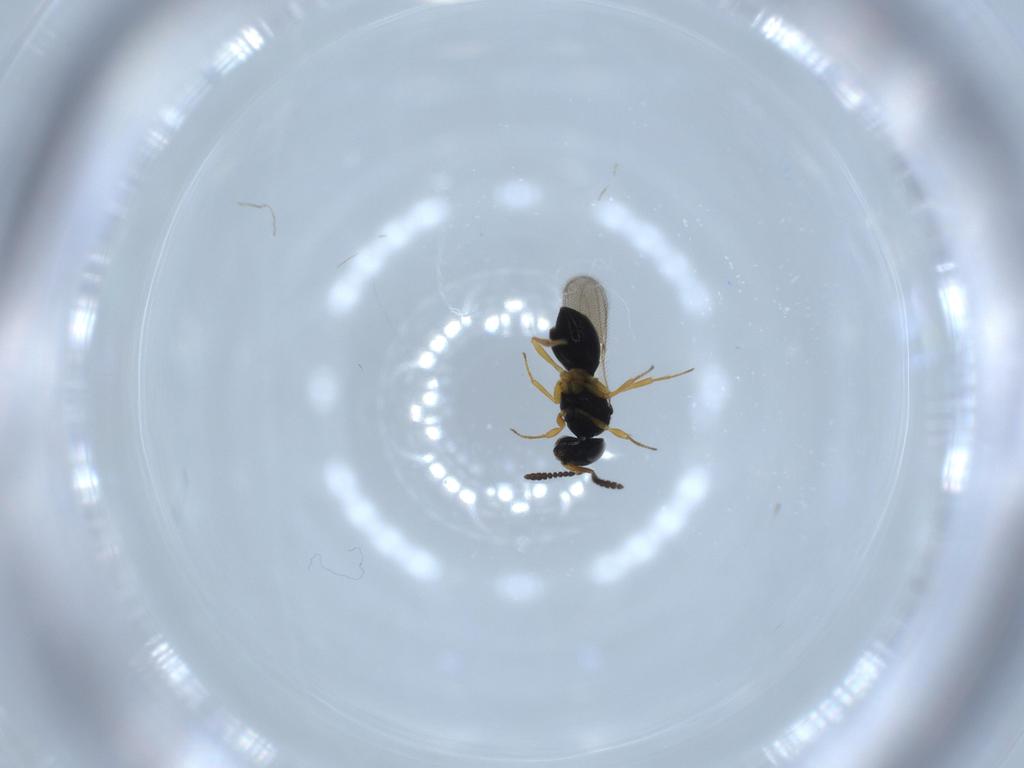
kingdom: Animalia
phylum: Arthropoda
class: Insecta
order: Hymenoptera
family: Scelionidae
